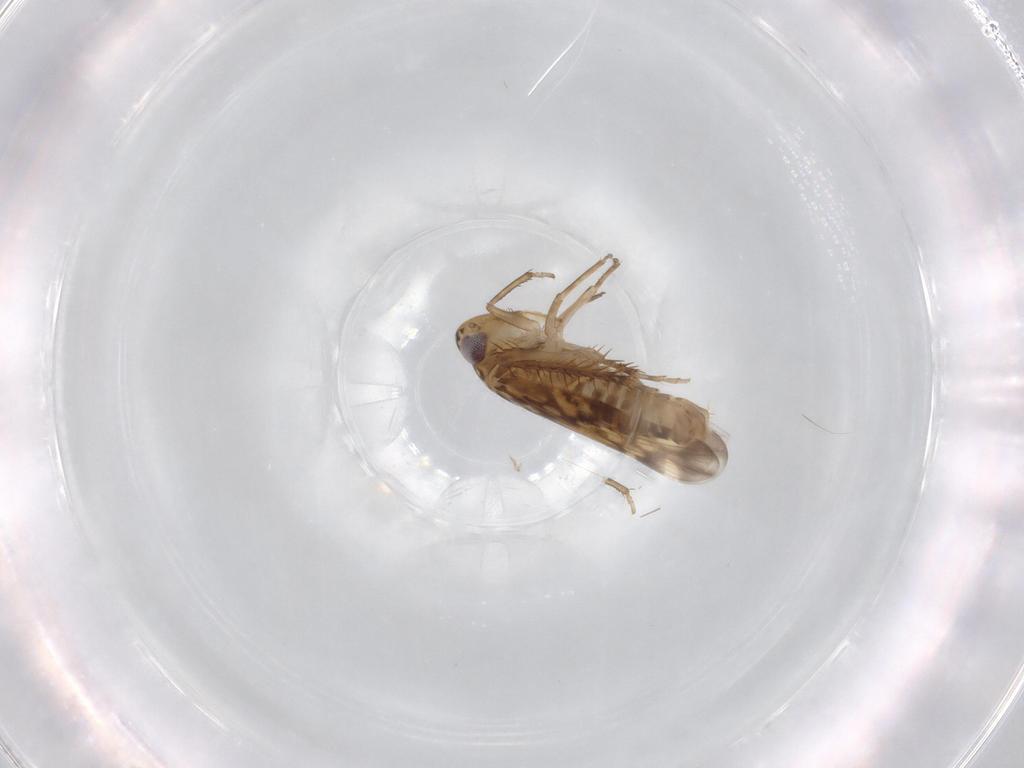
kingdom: Animalia
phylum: Arthropoda
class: Insecta
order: Hemiptera
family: Cicadellidae
